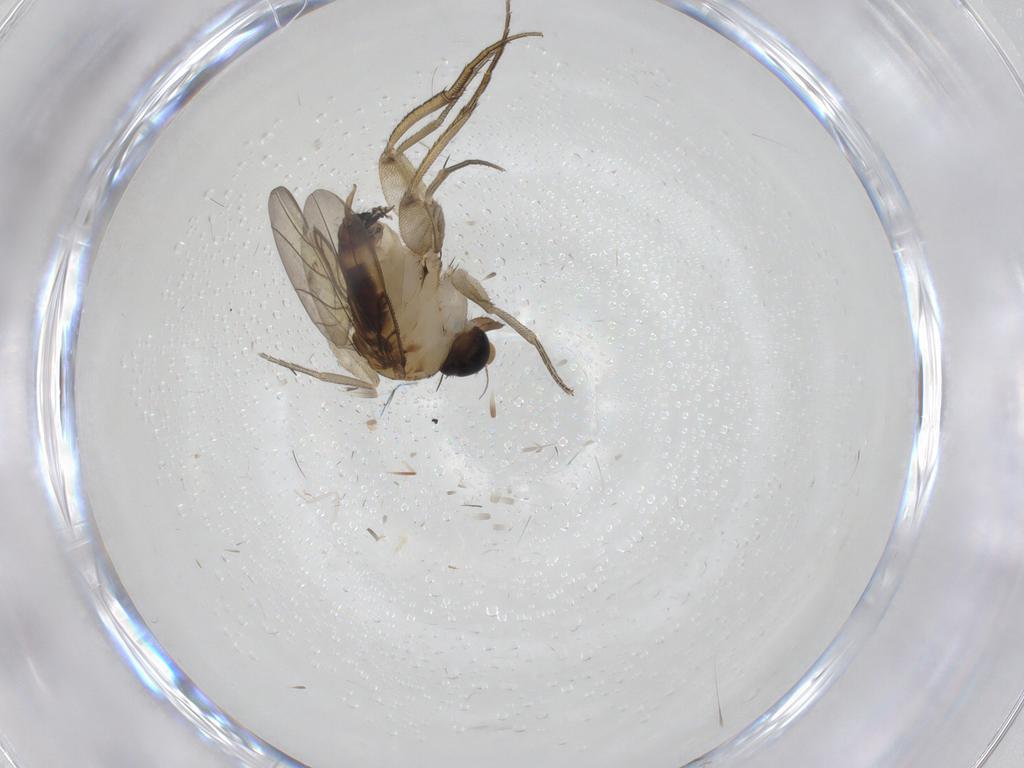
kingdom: Animalia
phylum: Arthropoda
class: Insecta
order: Diptera
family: Phoridae
